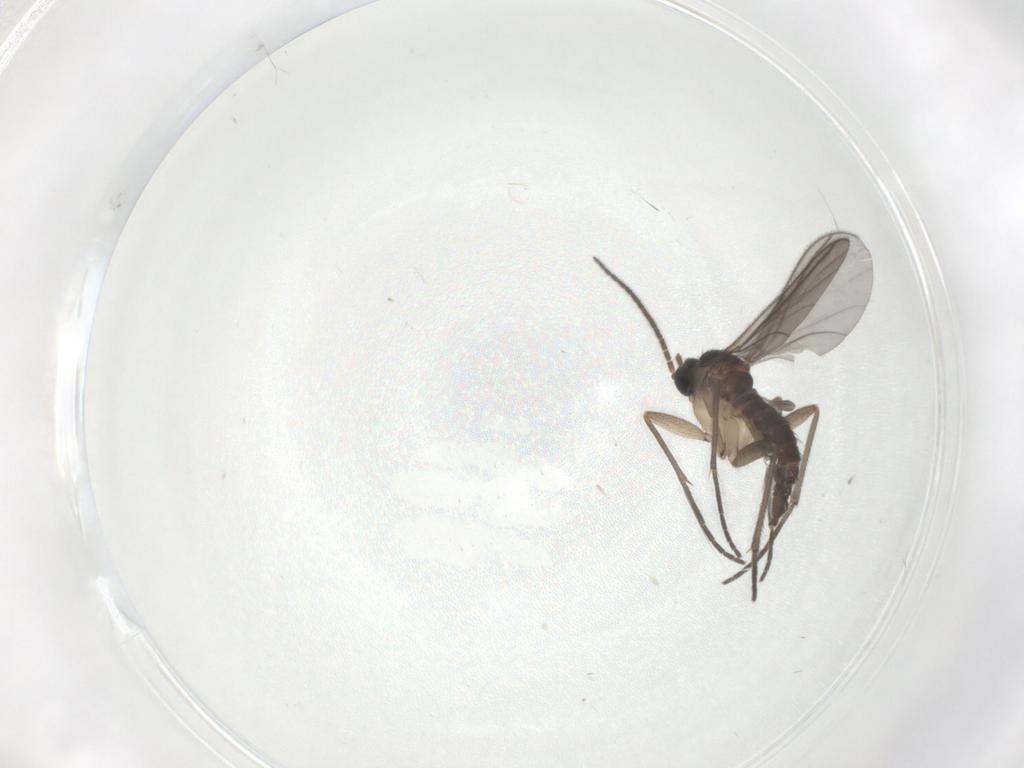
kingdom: Animalia
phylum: Arthropoda
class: Insecta
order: Diptera
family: Sciaridae
